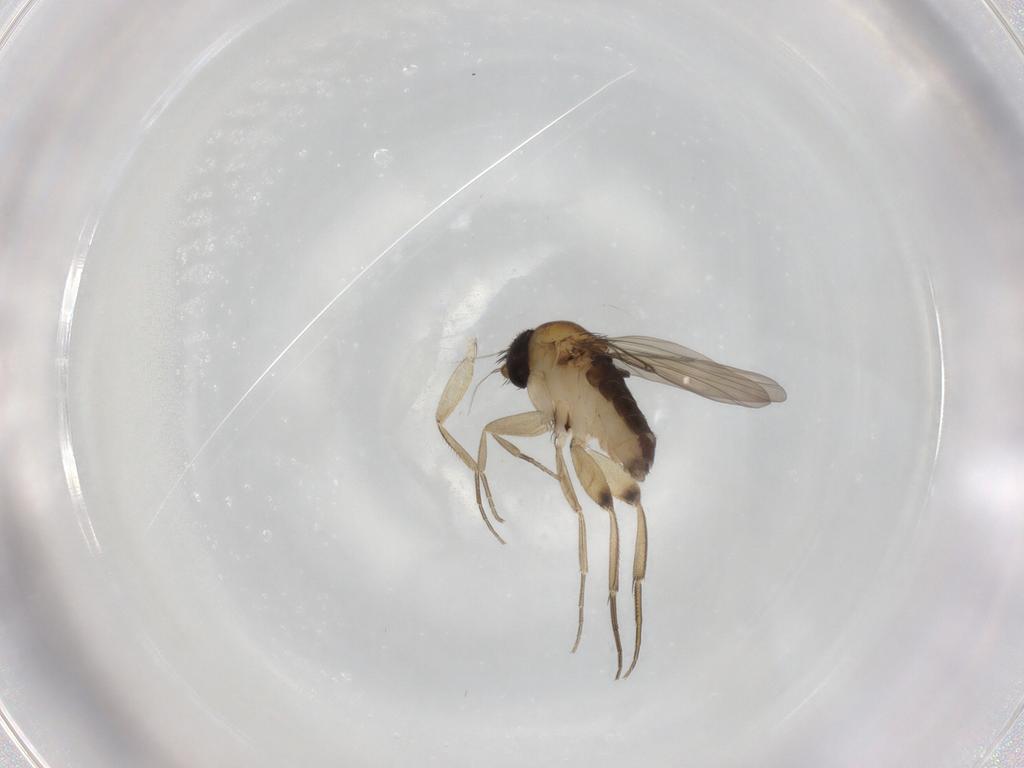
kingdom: Animalia
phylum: Arthropoda
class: Insecta
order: Diptera
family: Phoridae
